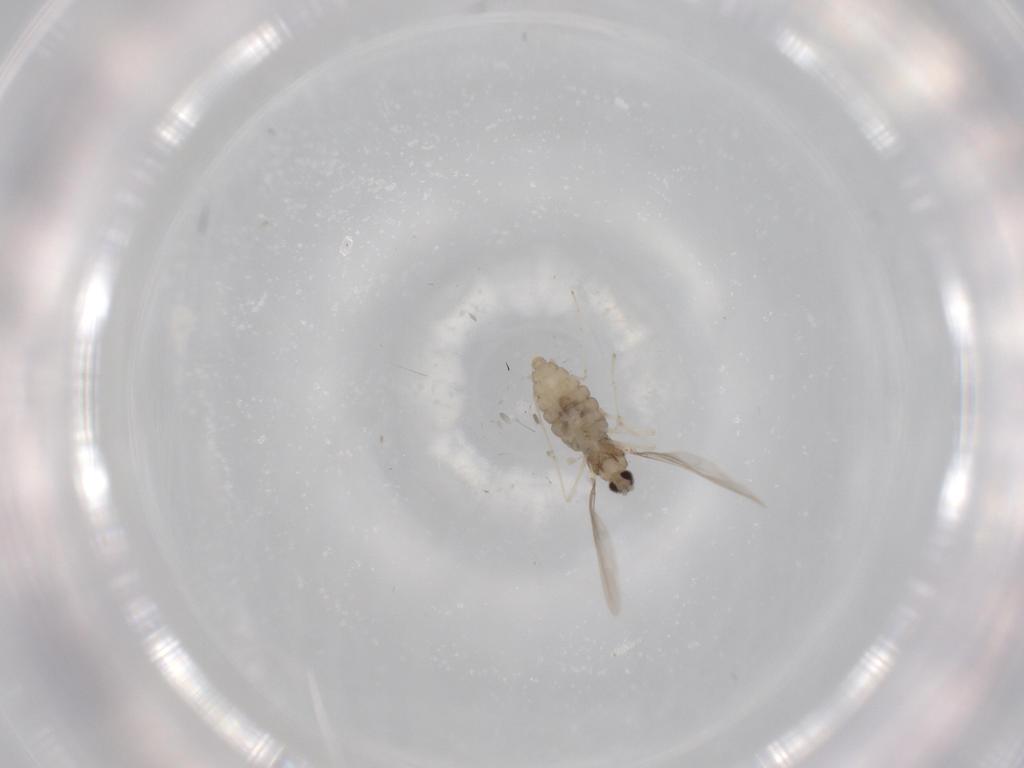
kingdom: Animalia
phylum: Arthropoda
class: Insecta
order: Diptera
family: Cecidomyiidae
